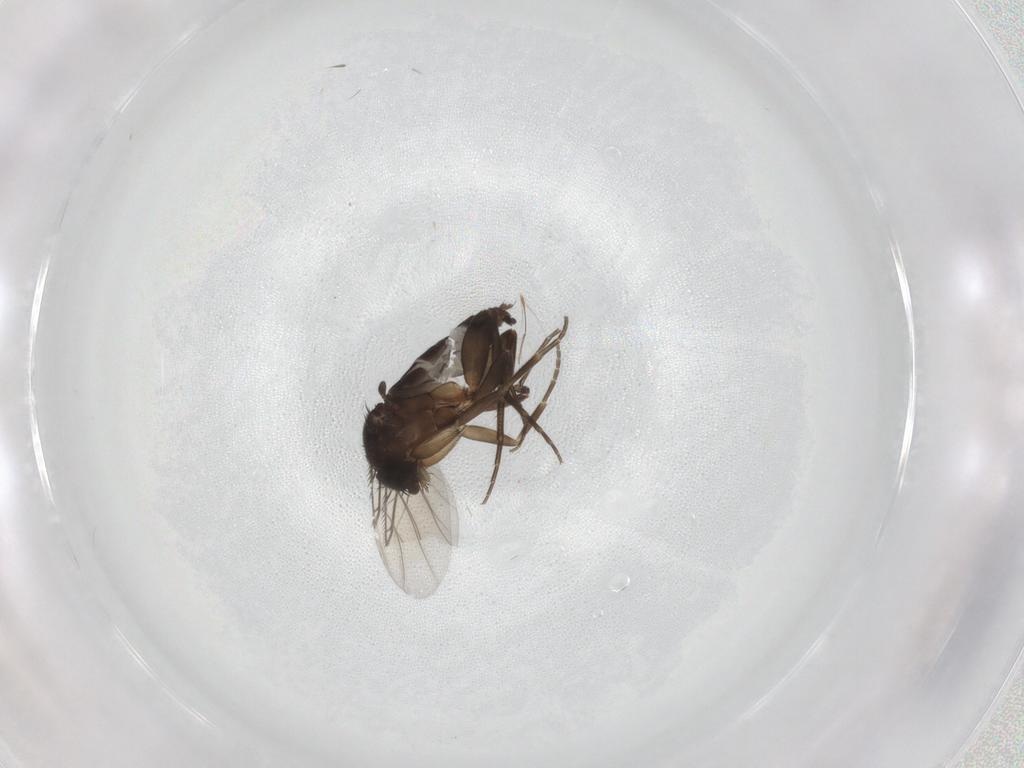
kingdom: Animalia
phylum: Arthropoda
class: Insecta
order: Diptera
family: Phoridae
